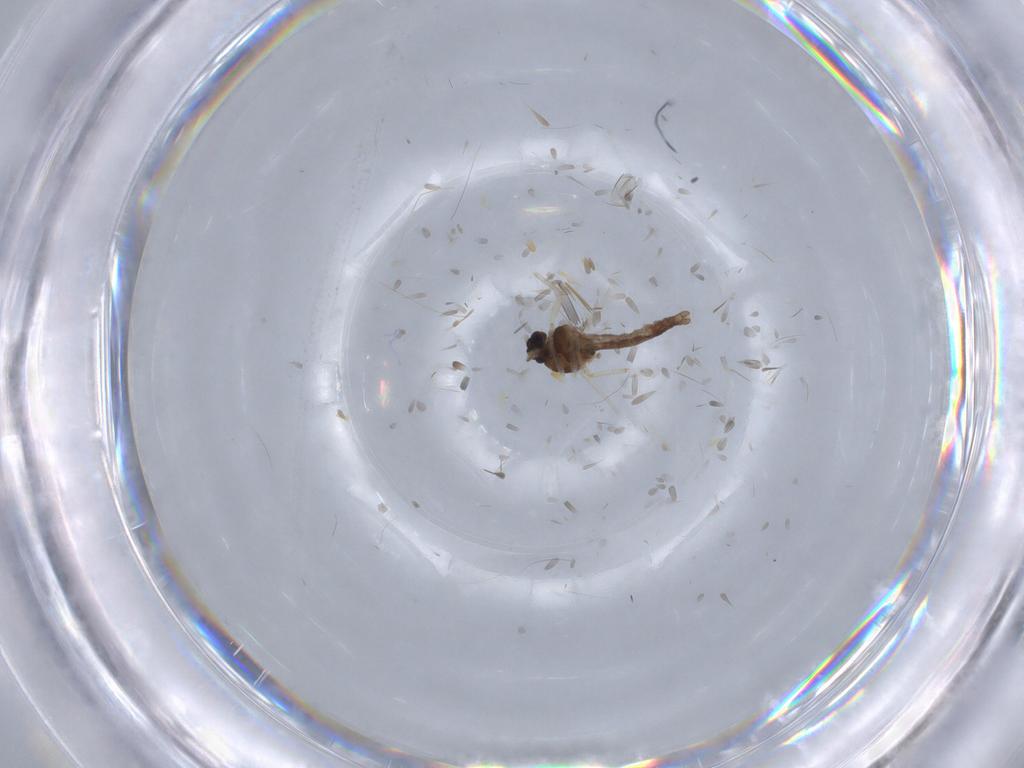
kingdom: Animalia
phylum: Arthropoda
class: Insecta
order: Diptera
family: Ceratopogonidae
